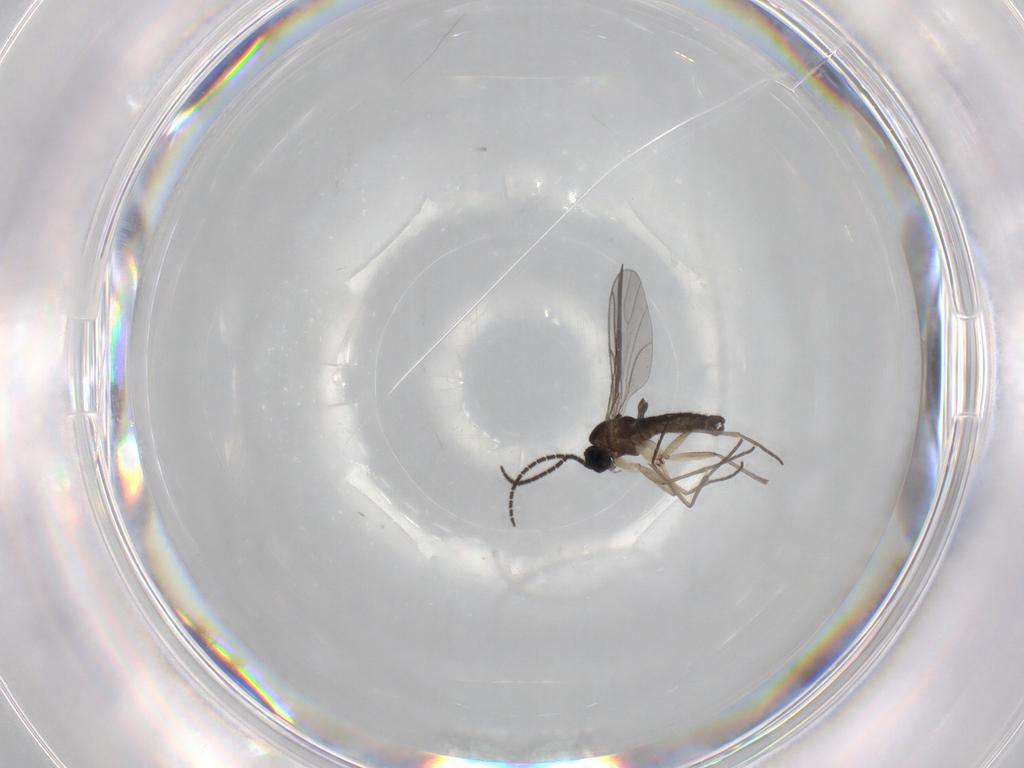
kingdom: Animalia
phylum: Arthropoda
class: Insecta
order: Diptera
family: Sciaridae
